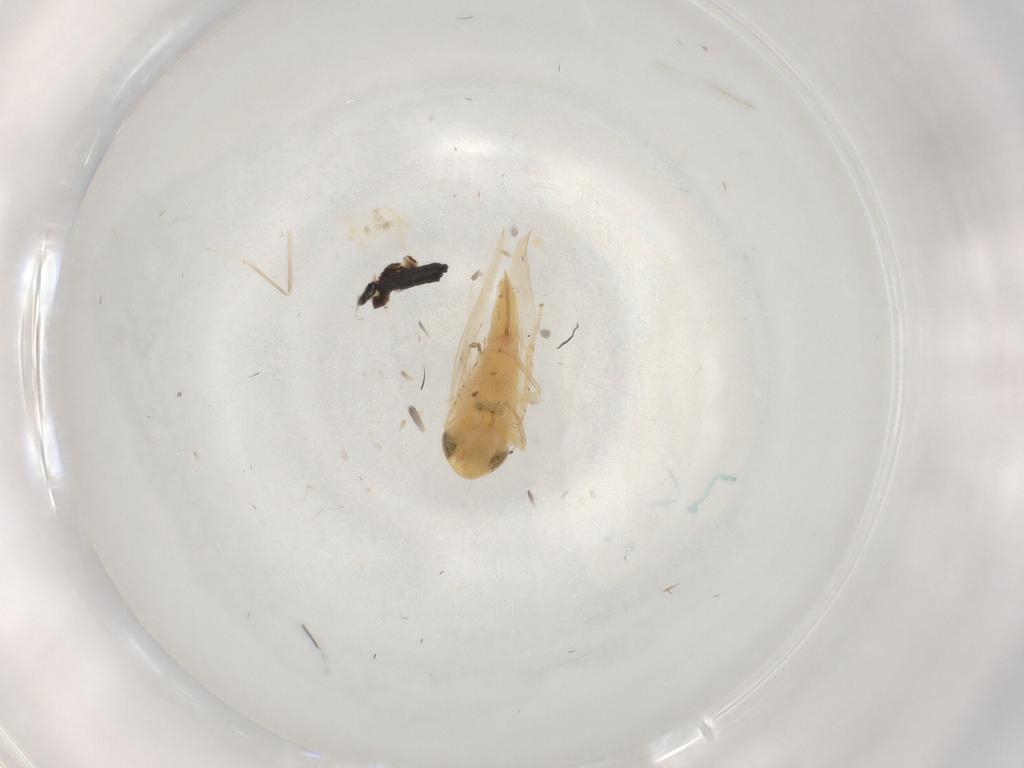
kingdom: Animalia
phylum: Arthropoda
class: Insecta
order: Hemiptera
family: Cicadellidae
